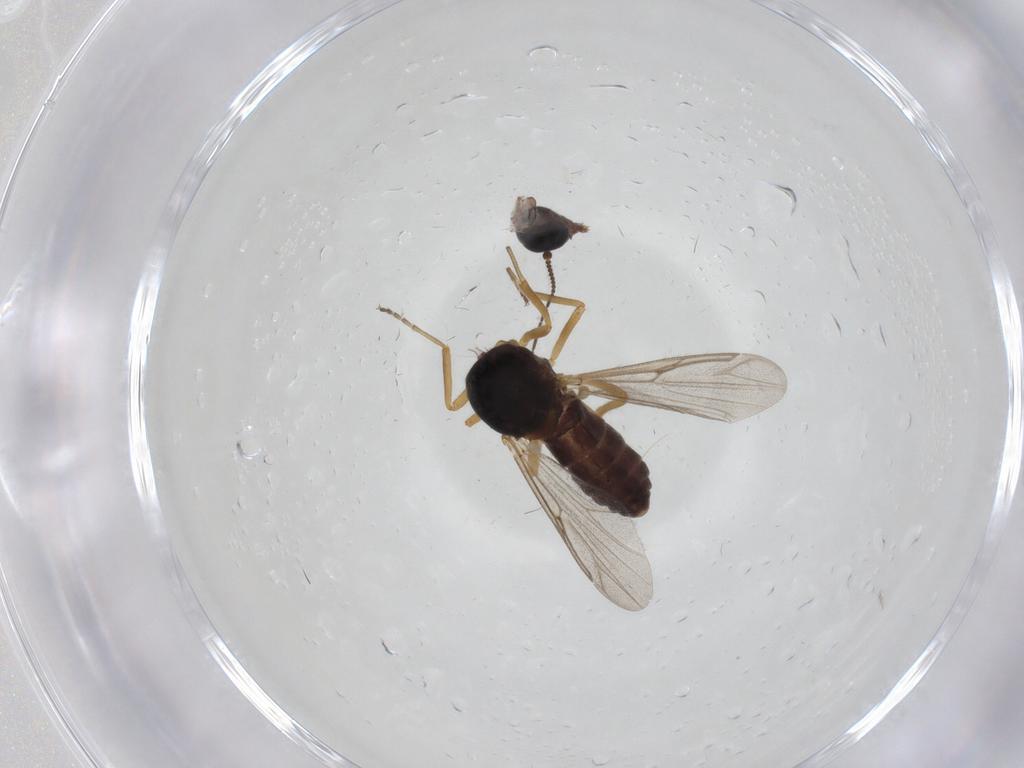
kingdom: Animalia
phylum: Arthropoda
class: Insecta
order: Diptera
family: Ceratopogonidae
